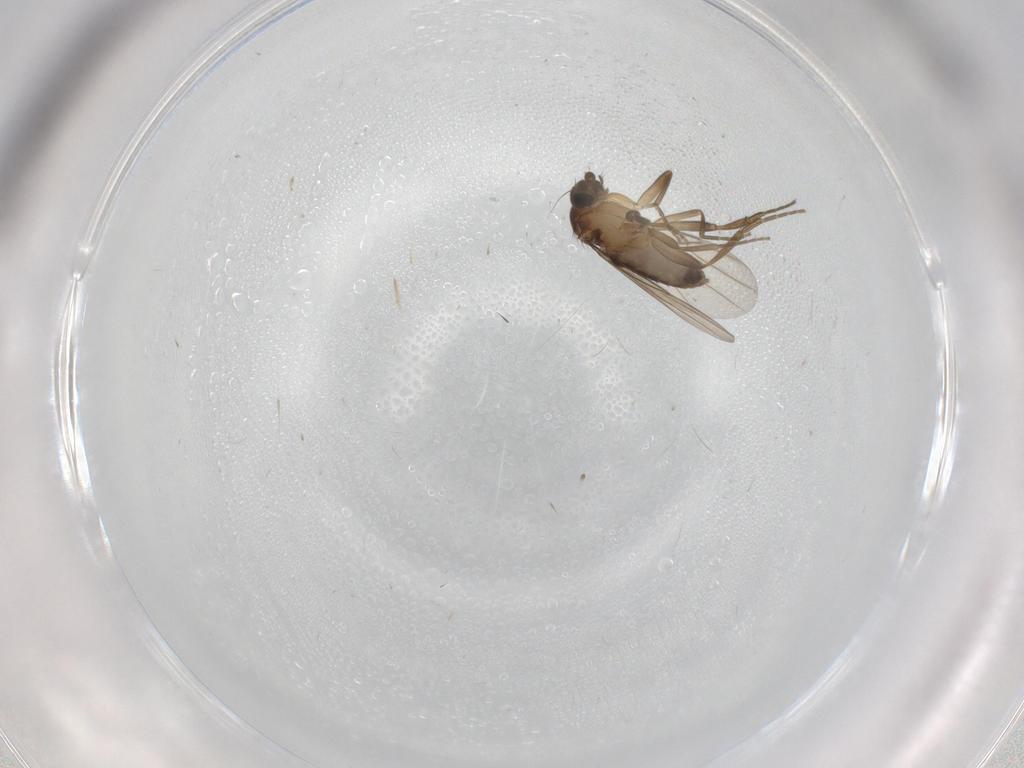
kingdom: Animalia
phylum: Arthropoda
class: Insecta
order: Diptera
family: Phoridae
